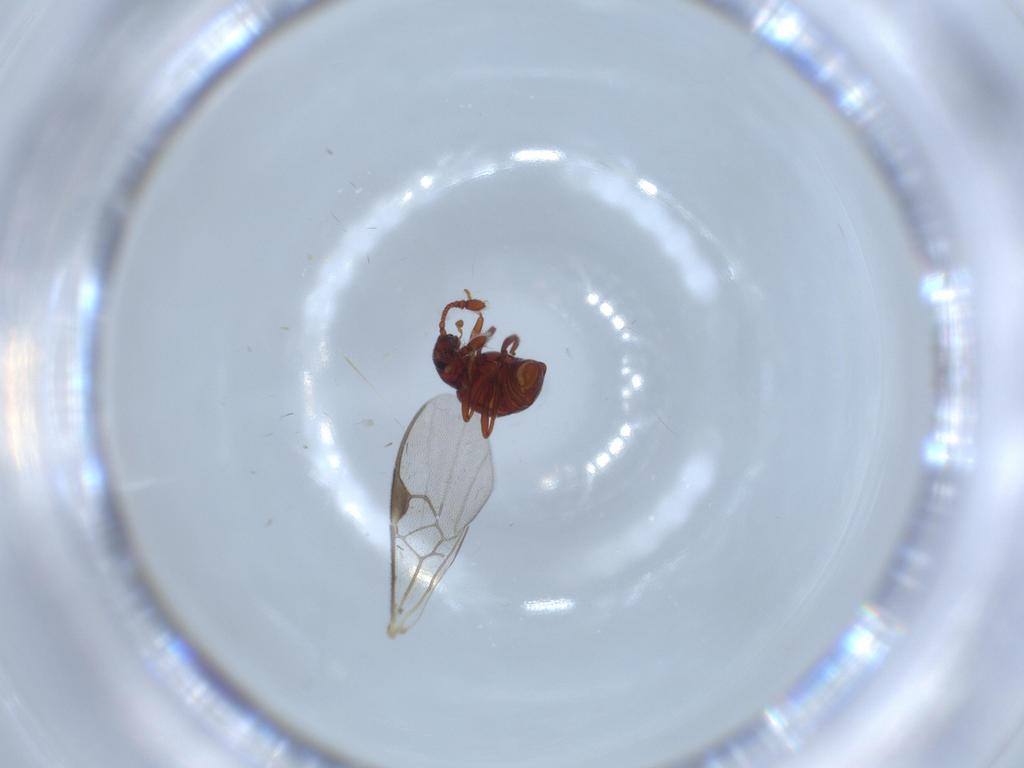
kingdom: Animalia
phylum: Arthropoda
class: Insecta
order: Coleoptera
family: Staphylinidae
